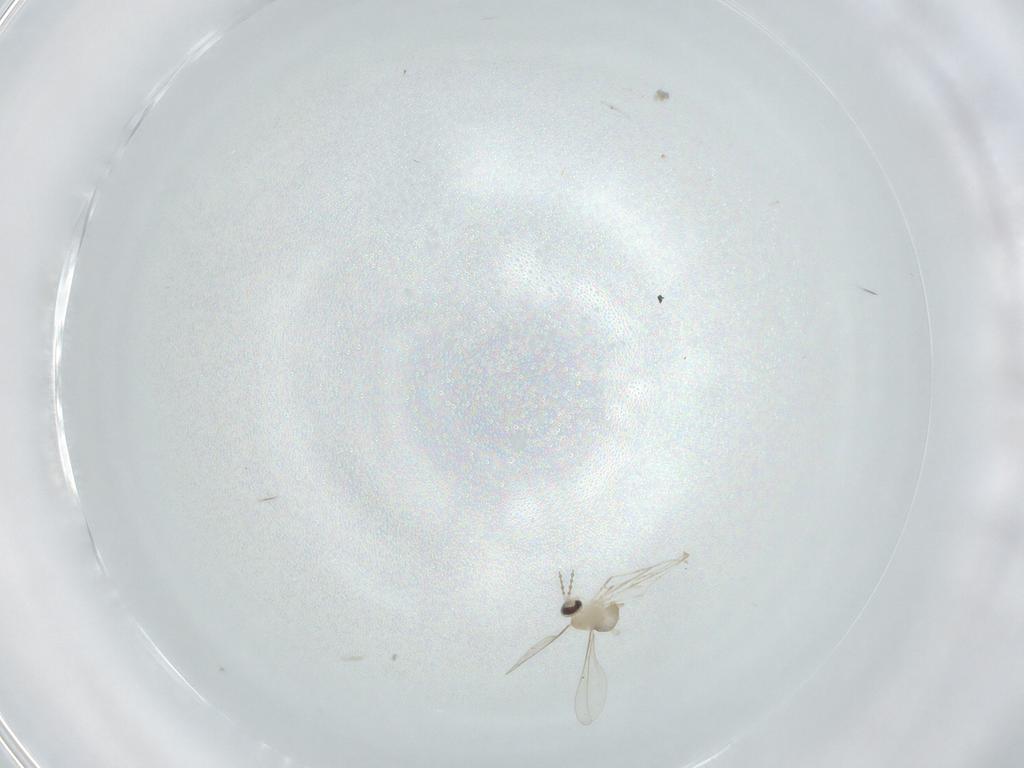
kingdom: Animalia
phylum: Arthropoda
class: Insecta
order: Diptera
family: Cecidomyiidae
